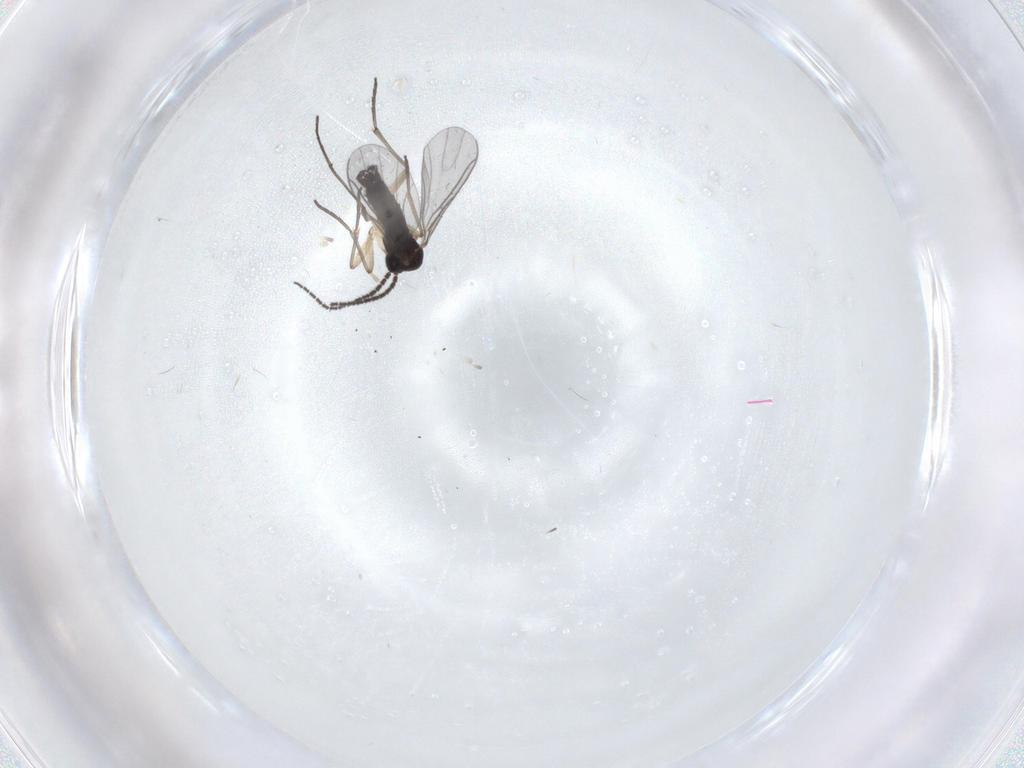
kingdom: Animalia
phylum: Arthropoda
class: Insecta
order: Diptera
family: Sciaridae
